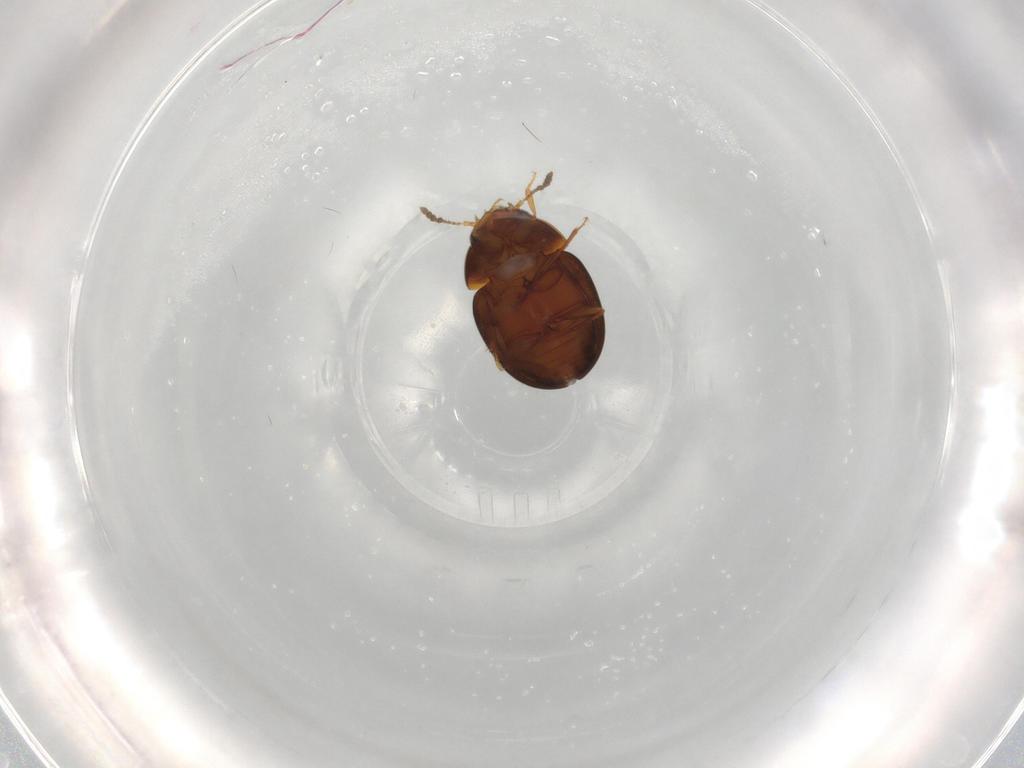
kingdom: Animalia
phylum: Arthropoda
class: Insecta
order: Coleoptera
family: Leiodidae
